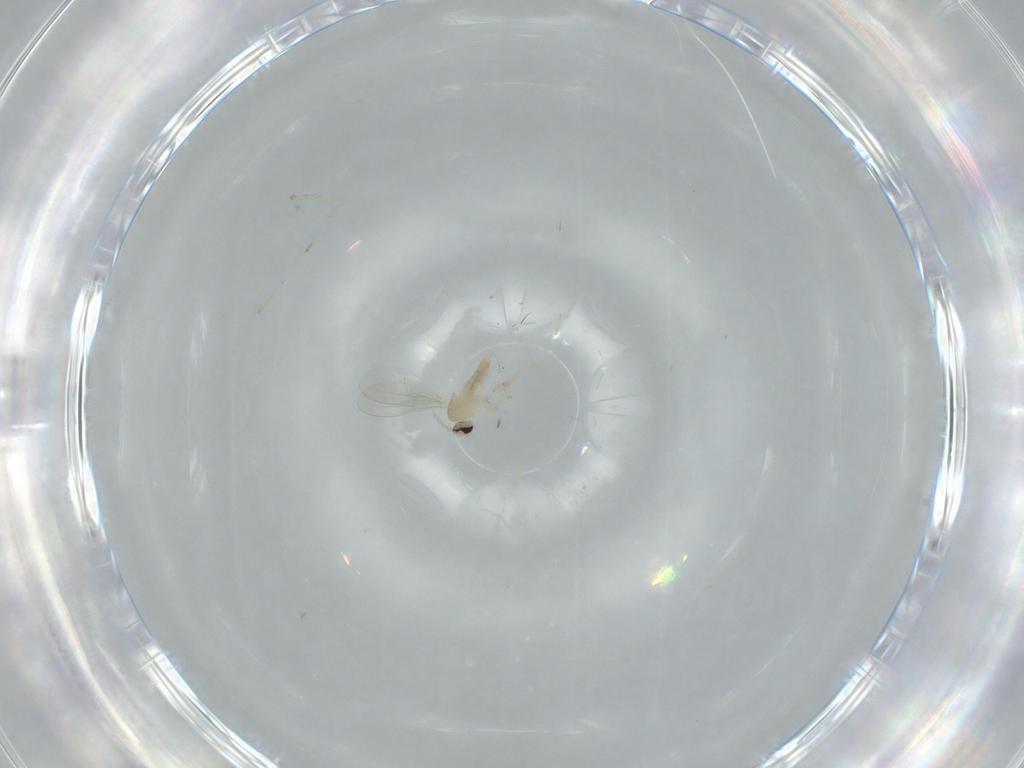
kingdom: Animalia
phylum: Arthropoda
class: Insecta
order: Diptera
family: Cecidomyiidae
